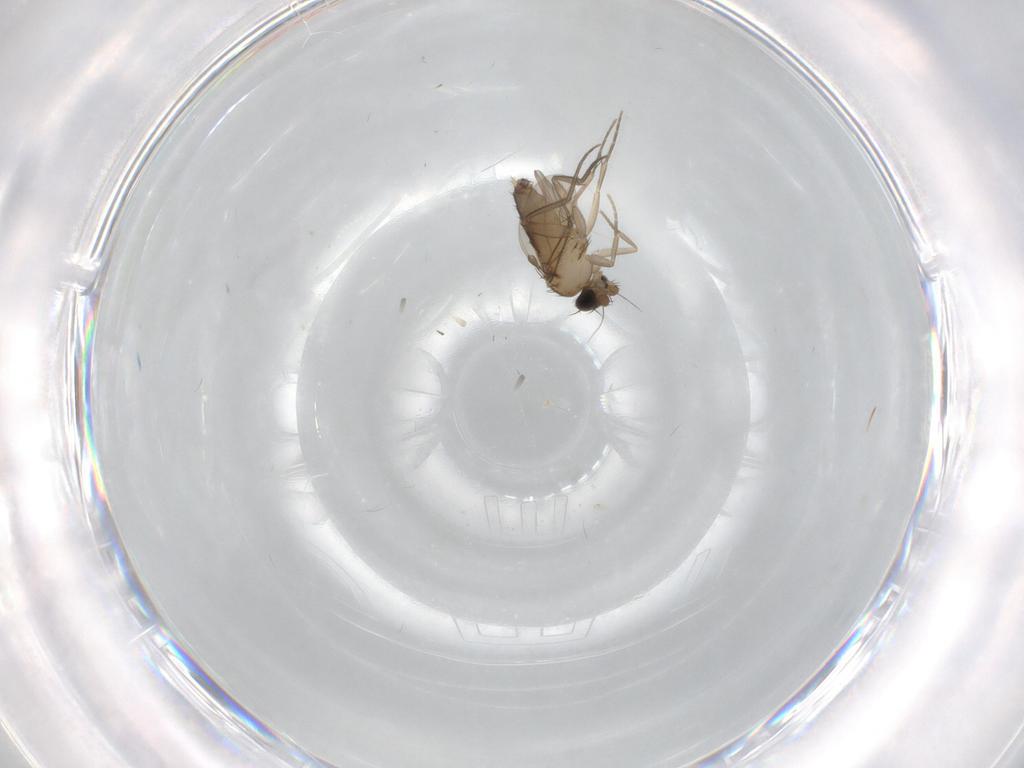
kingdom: Animalia
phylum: Arthropoda
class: Insecta
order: Diptera
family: Phoridae
